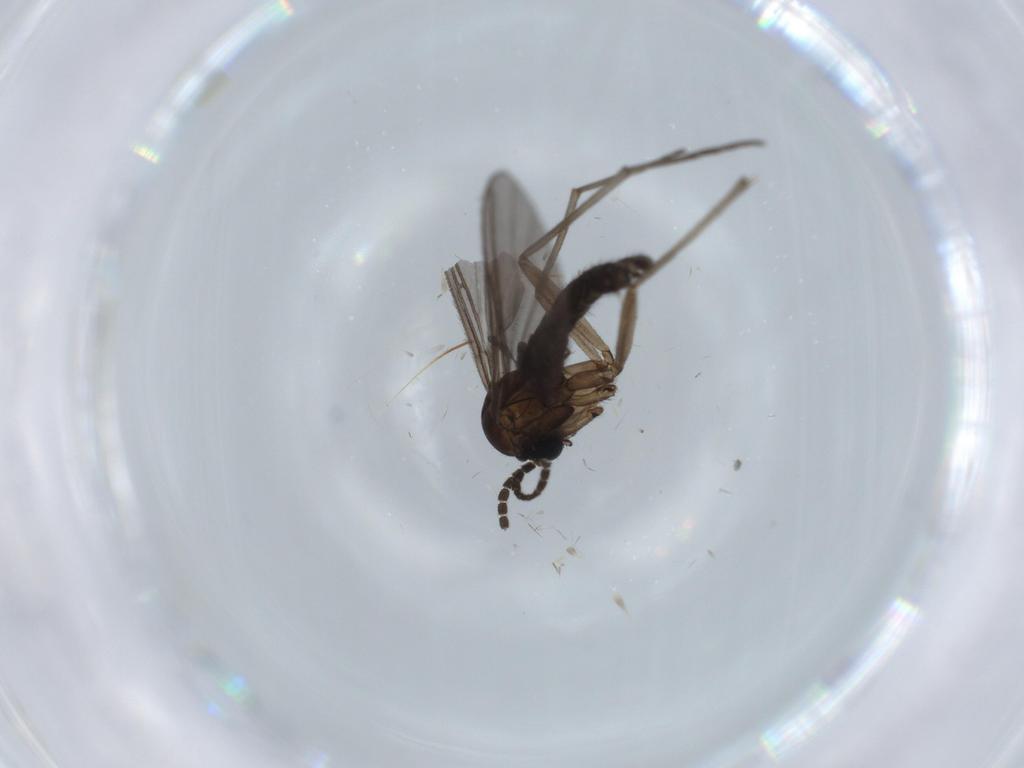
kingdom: Animalia
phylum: Arthropoda
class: Insecta
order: Diptera
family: Sciaridae
